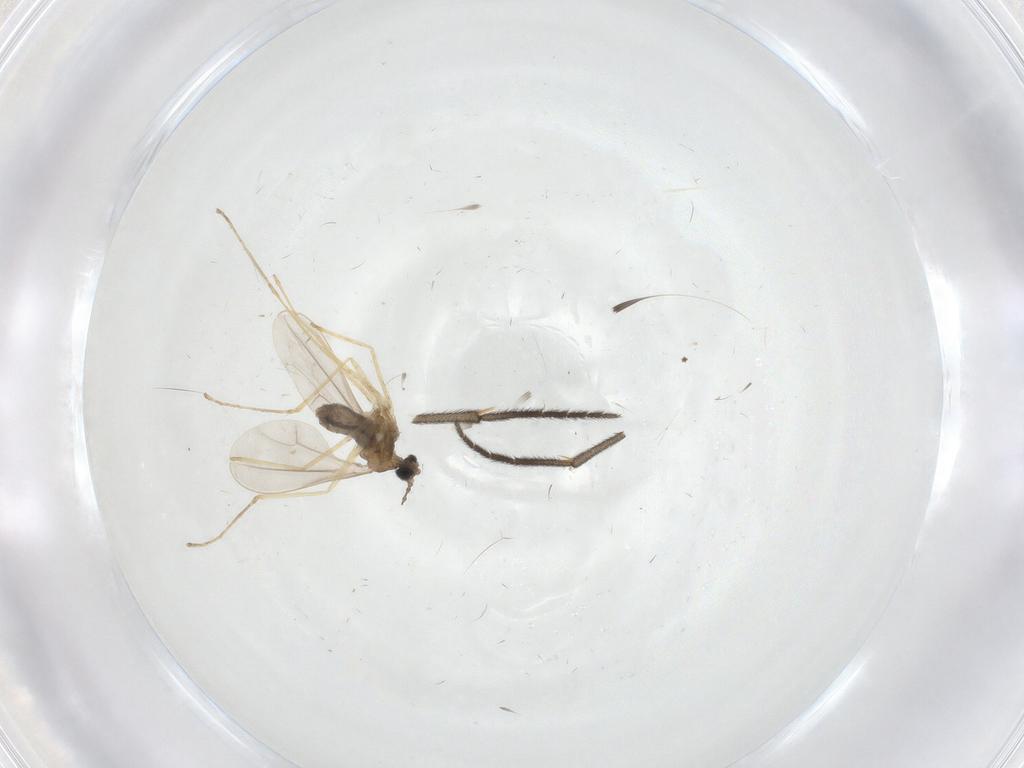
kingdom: Animalia
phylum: Arthropoda
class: Insecta
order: Diptera
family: Cecidomyiidae
